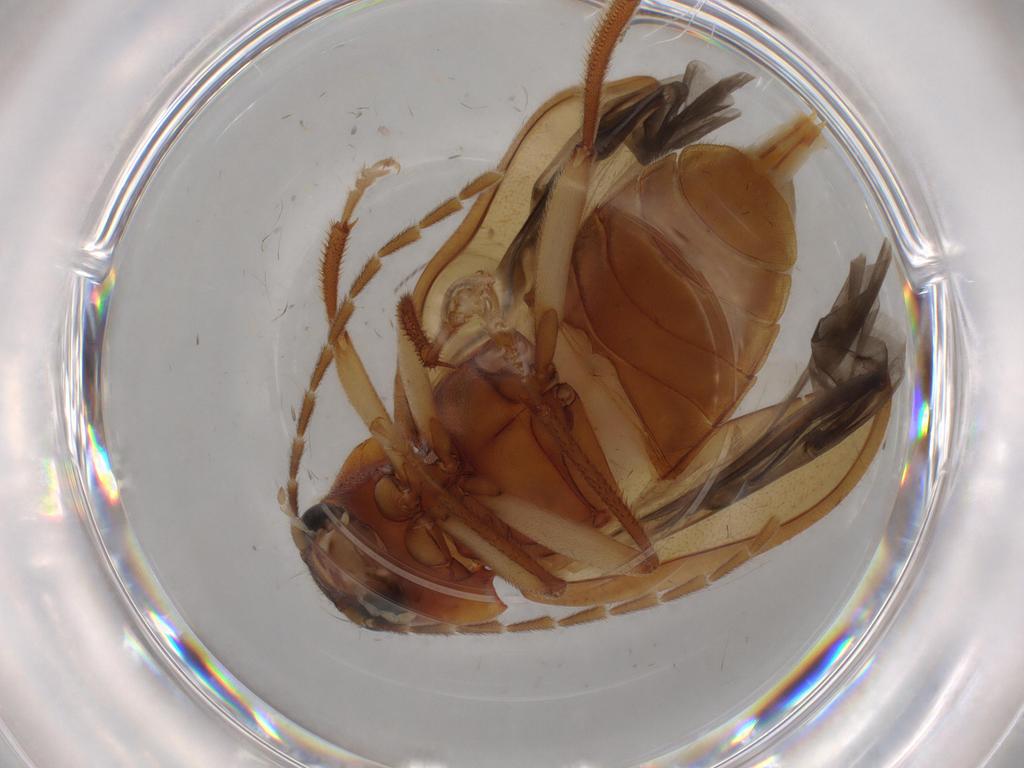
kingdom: Animalia
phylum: Arthropoda
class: Insecta
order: Coleoptera
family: Ptilodactylidae
